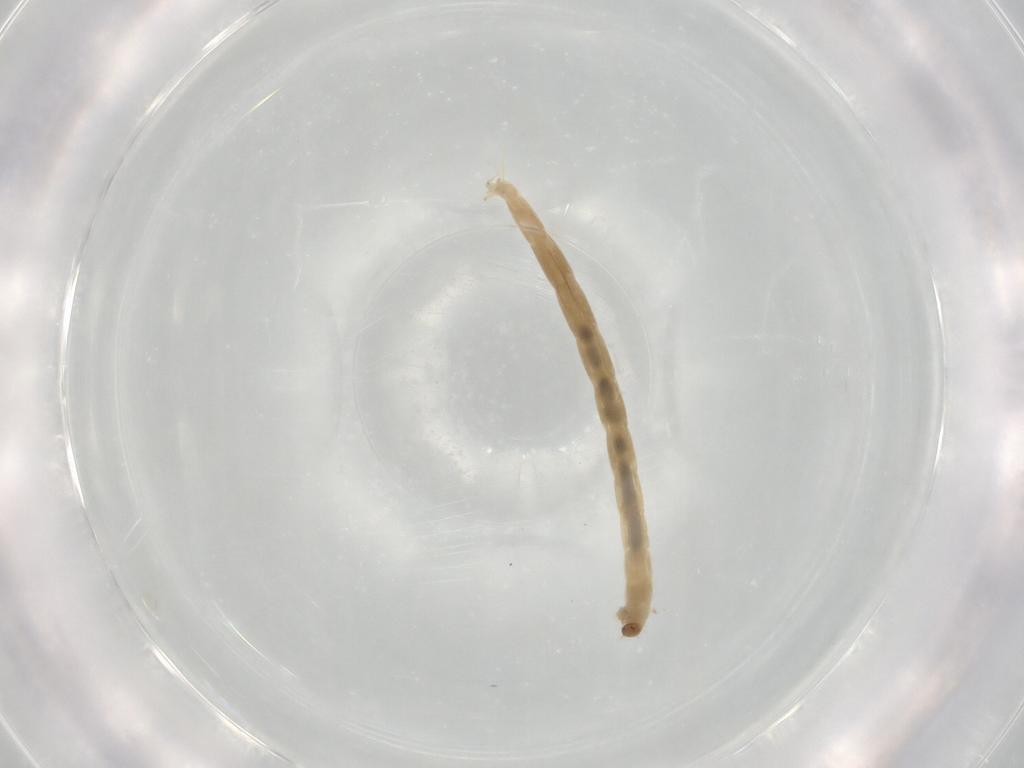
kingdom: Animalia
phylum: Arthropoda
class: Insecta
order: Diptera
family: Chironomidae
